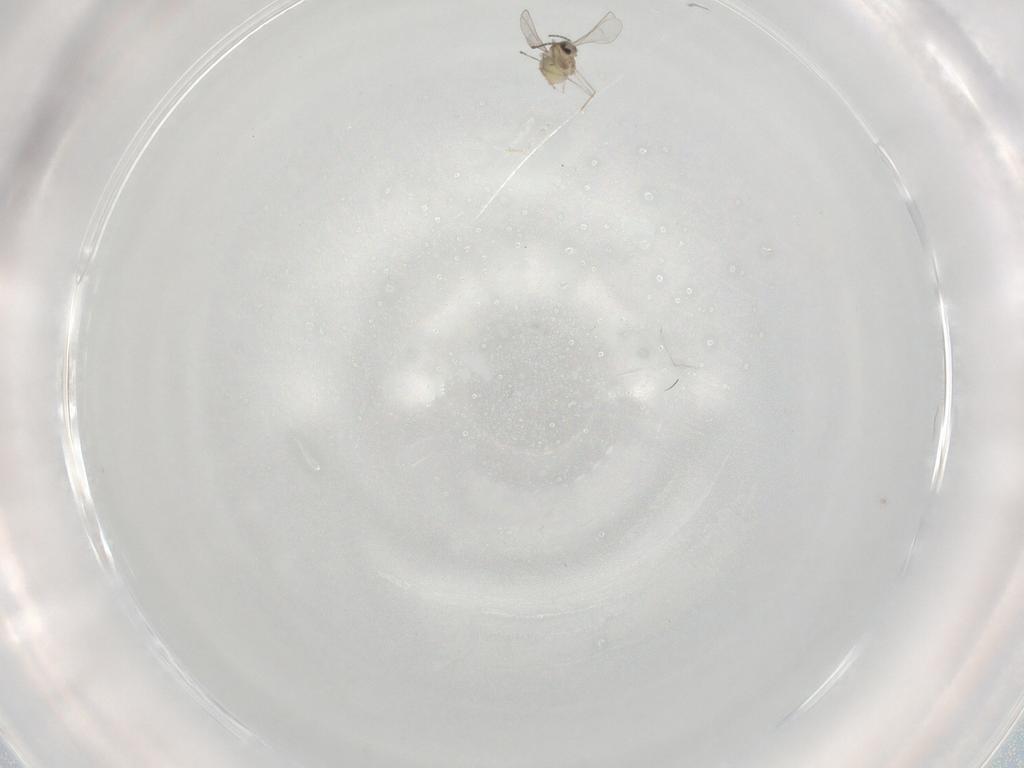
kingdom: Animalia
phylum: Arthropoda
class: Insecta
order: Diptera
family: Cecidomyiidae
